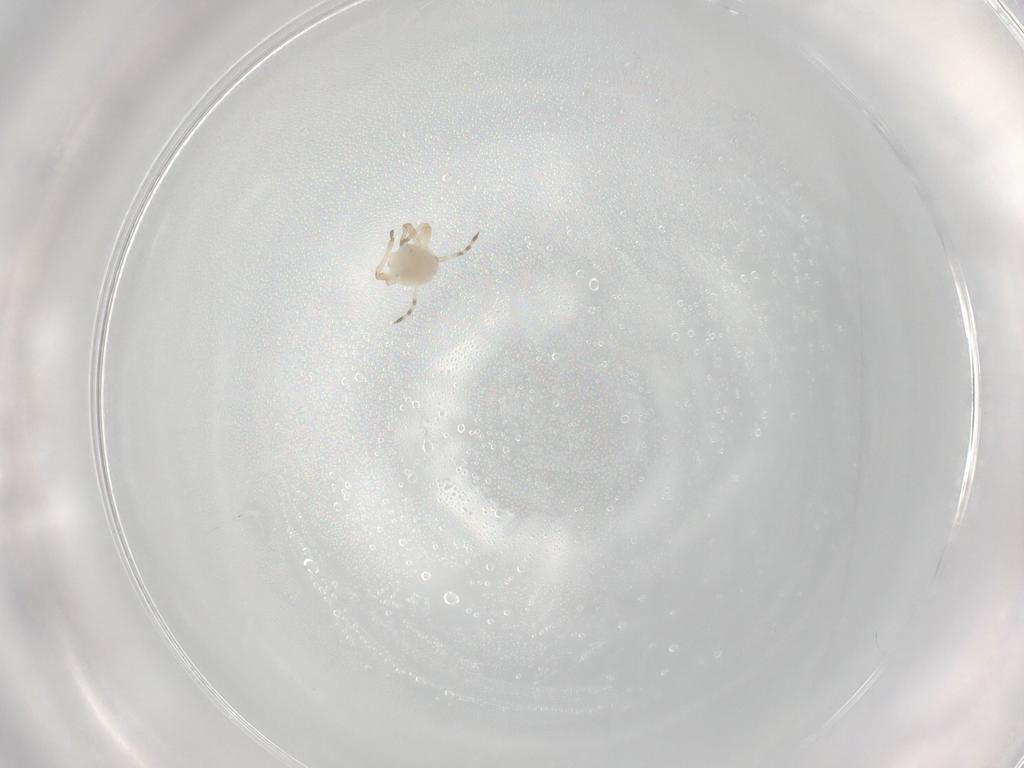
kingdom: Animalia
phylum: Arthropoda
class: Insecta
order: Hemiptera
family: Aphididae
